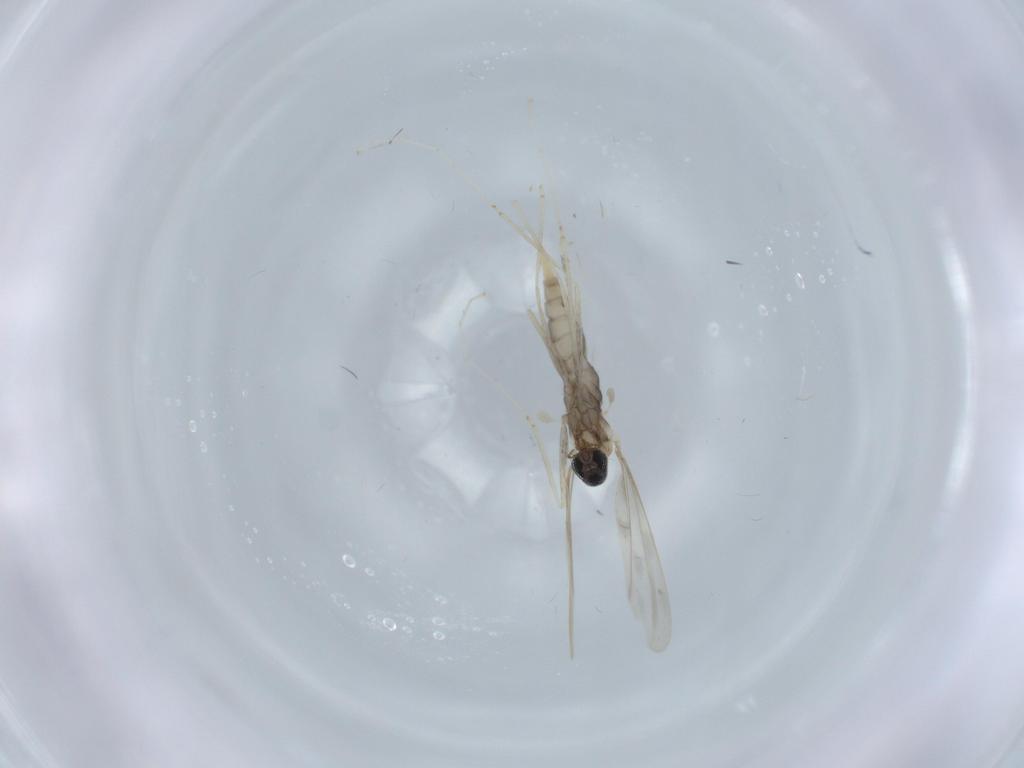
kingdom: Animalia
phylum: Arthropoda
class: Insecta
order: Diptera
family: Cecidomyiidae
